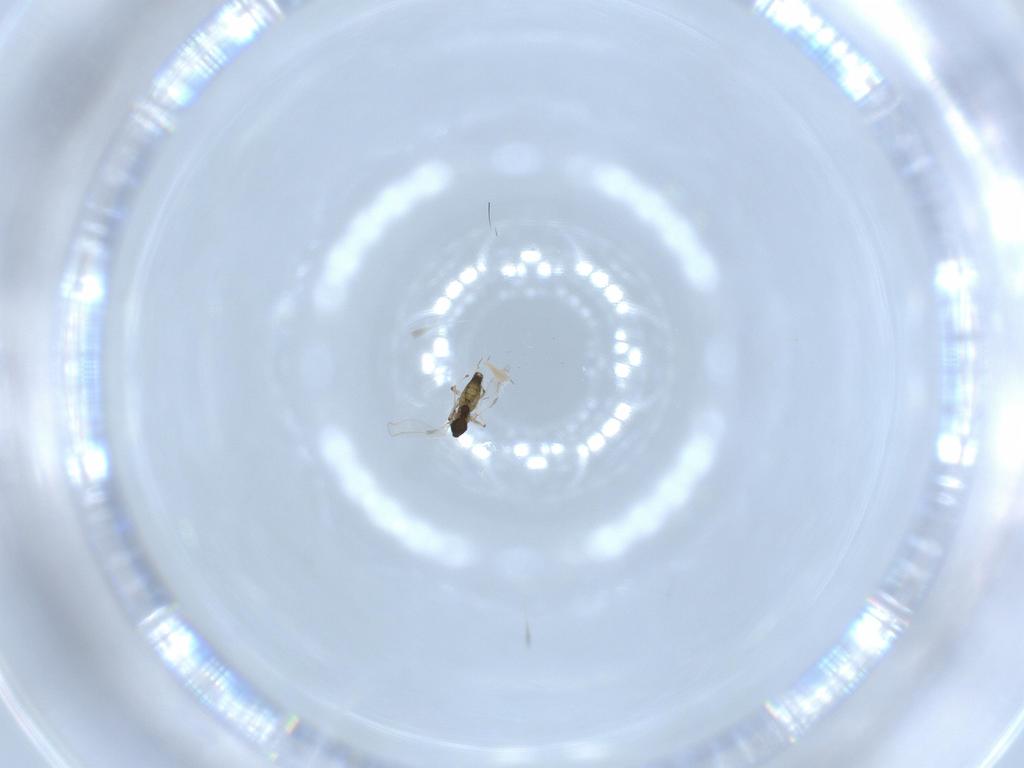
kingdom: Animalia
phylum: Arthropoda
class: Insecta
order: Diptera
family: Chironomidae
